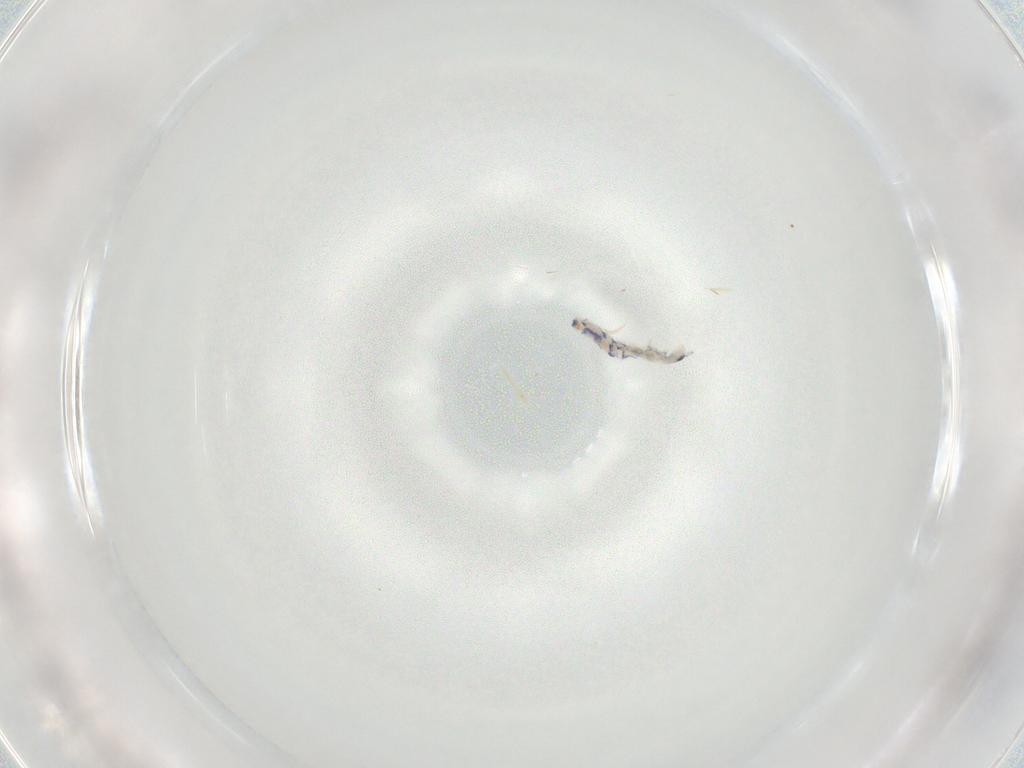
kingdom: Animalia
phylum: Arthropoda
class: Collembola
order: Entomobryomorpha
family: Entomobryidae
